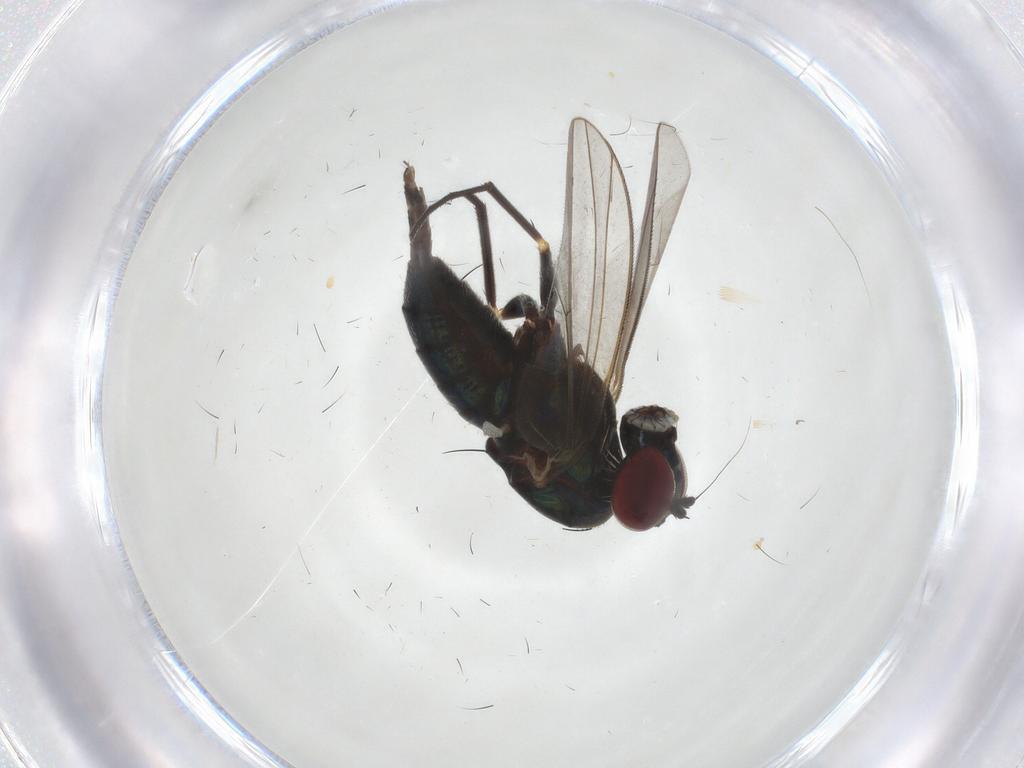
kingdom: Animalia
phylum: Arthropoda
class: Insecta
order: Diptera
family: Dolichopodidae
